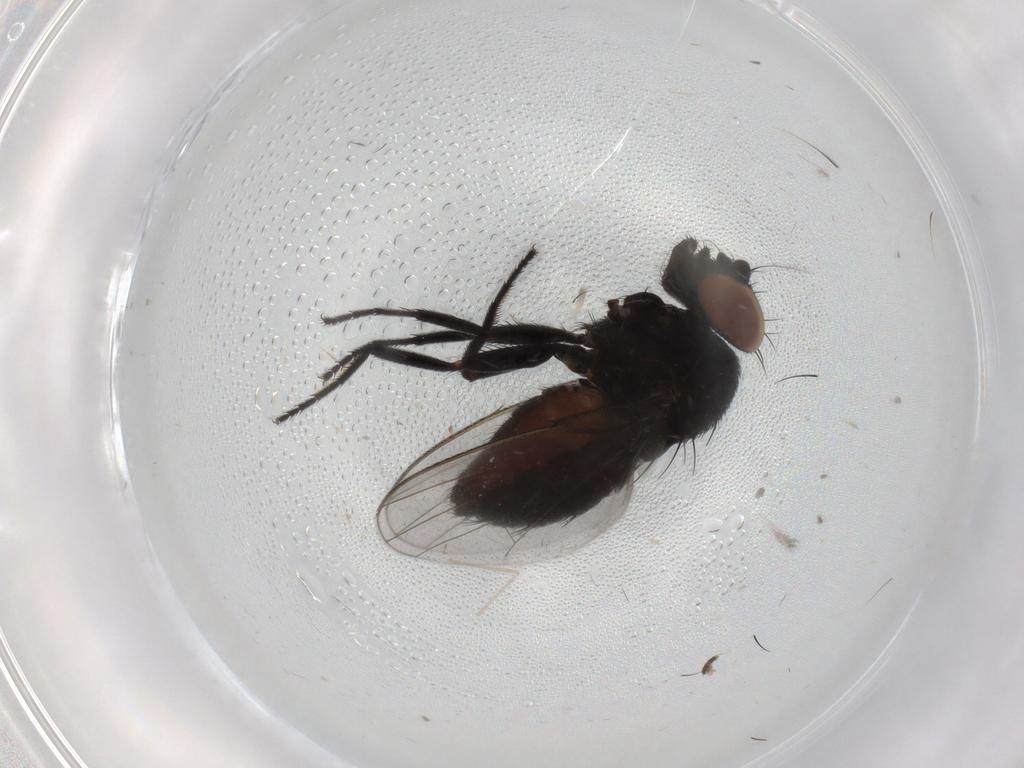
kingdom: Animalia
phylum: Arthropoda
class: Insecta
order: Diptera
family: Milichiidae
